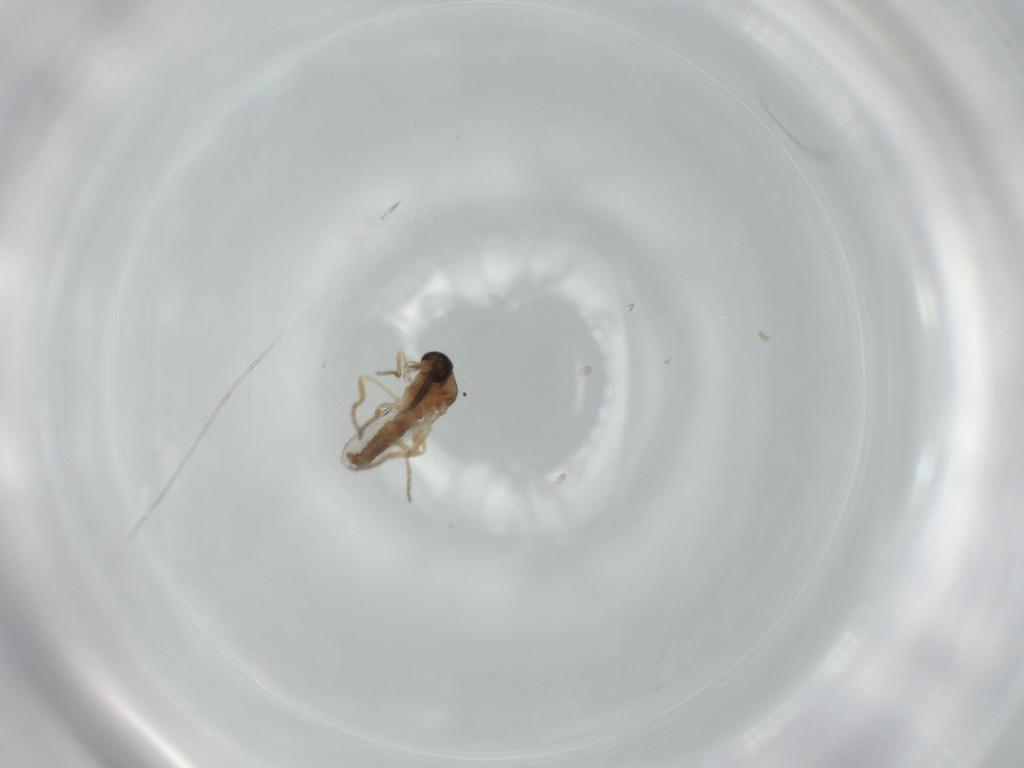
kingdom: Animalia
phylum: Arthropoda
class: Insecta
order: Diptera
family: Ceratopogonidae
